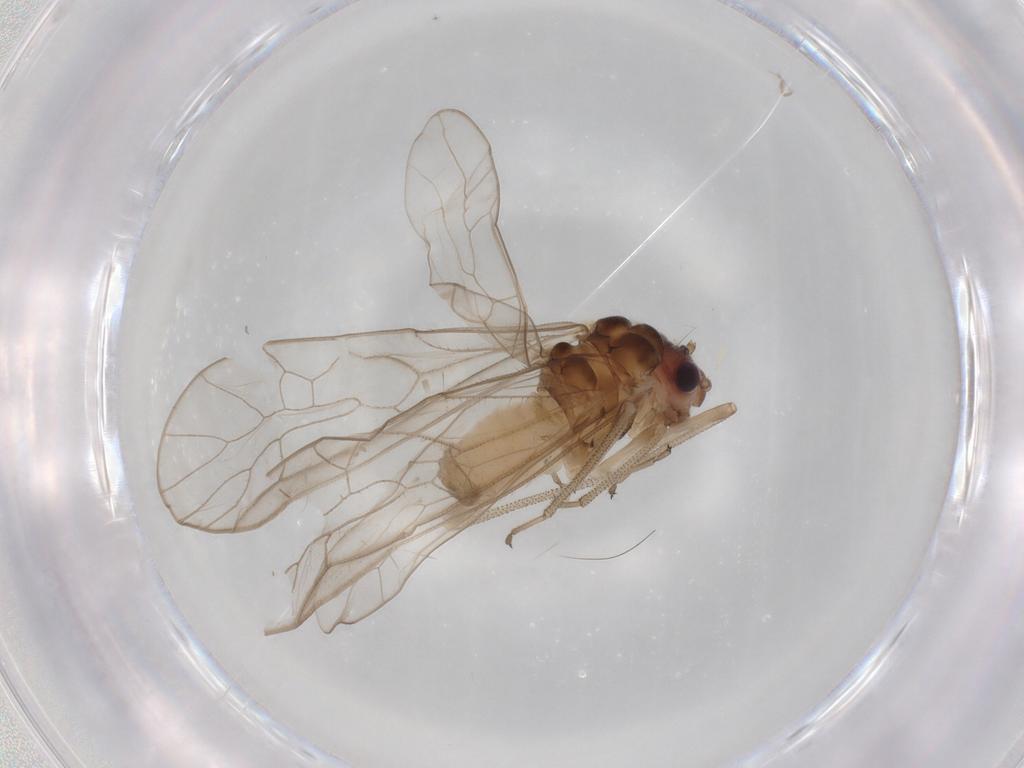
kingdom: Animalia
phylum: Arthropoda
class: Insecta
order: Psocodea
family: Stenopsocidae
